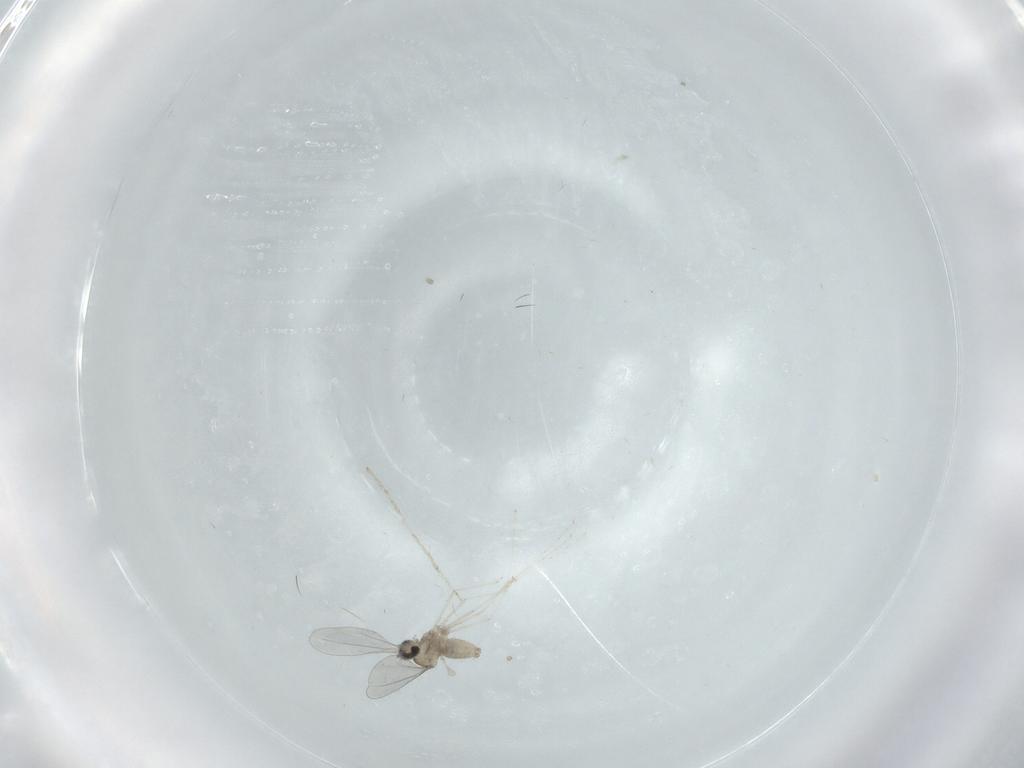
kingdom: Animalia
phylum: Arthropoda
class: Insecta
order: Diptera
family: Cecidomyiidae
